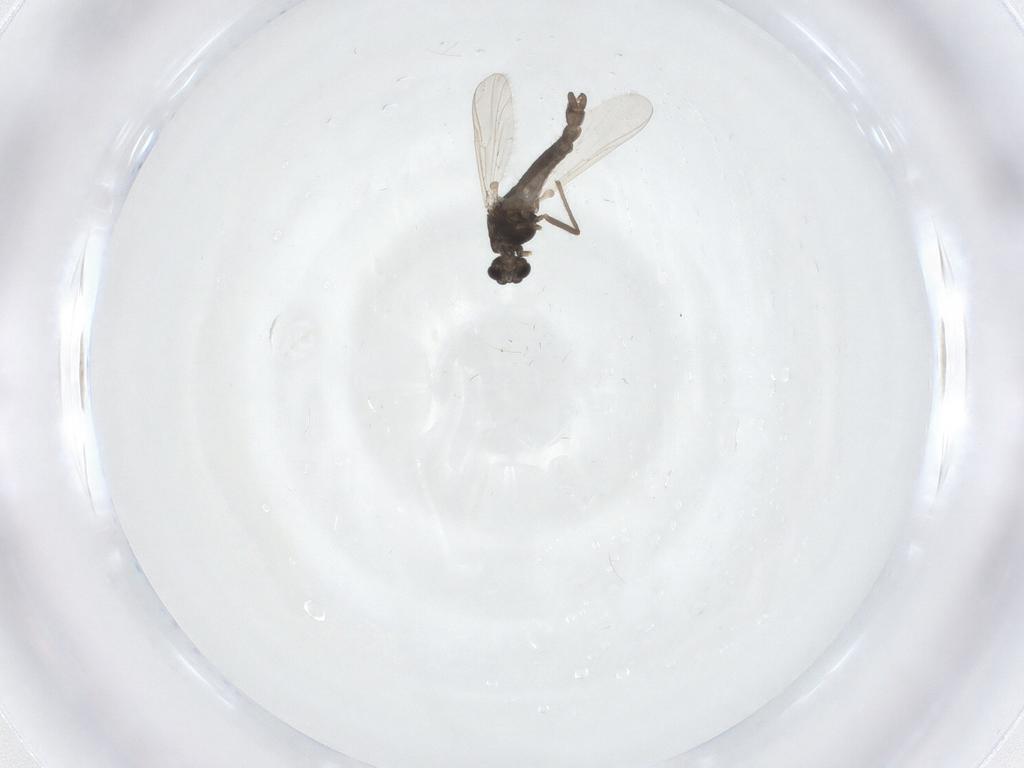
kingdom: Animalia
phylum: Arthropoda
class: Insecta
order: Diptera
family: Chironomidae
